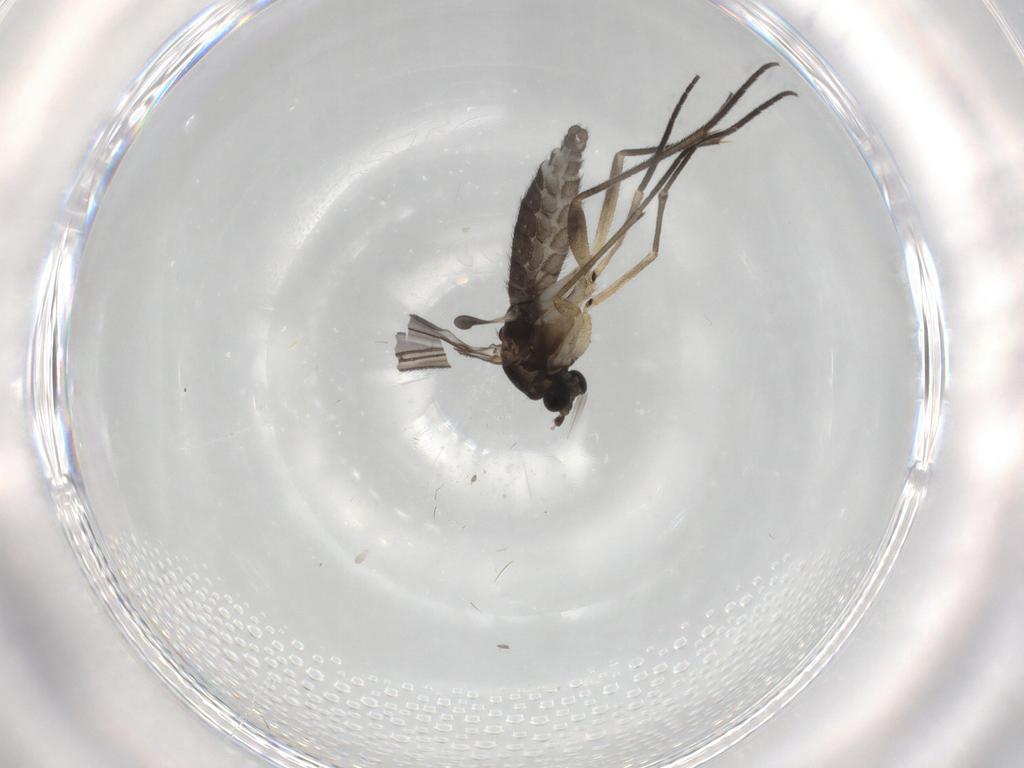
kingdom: Animalia
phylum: Arthropoda
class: Insecta
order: Diptera
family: Sciaridae
